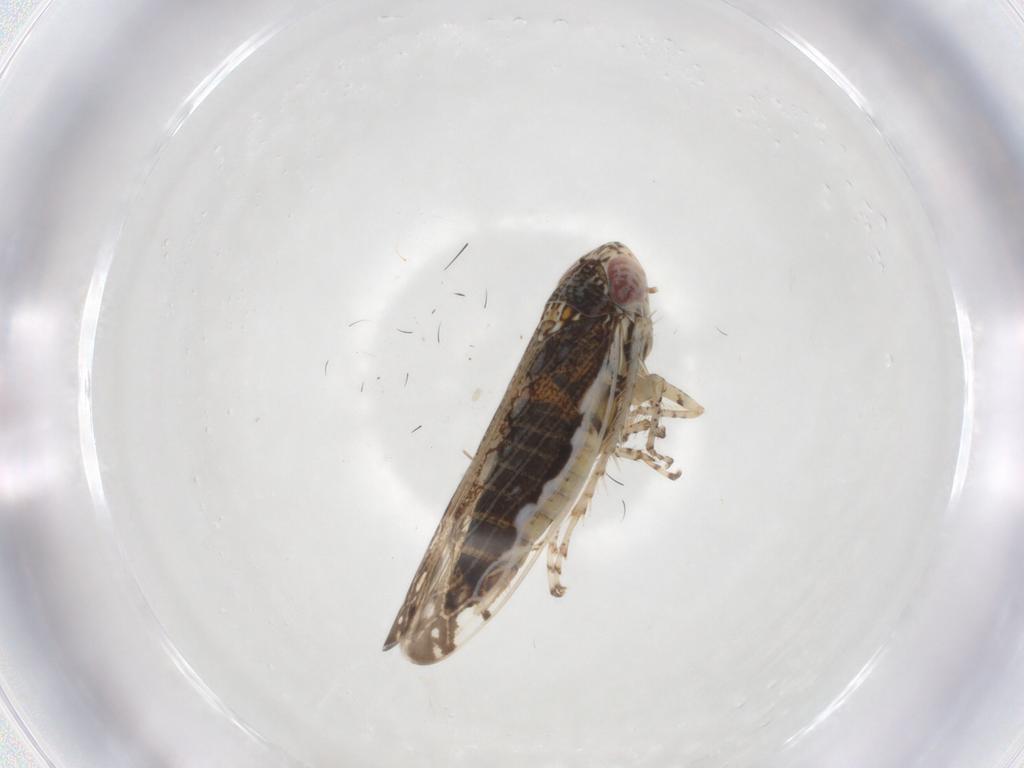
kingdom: Animalia
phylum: Arthropoda
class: Insecta
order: Hemiptera
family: Cicadellidae
